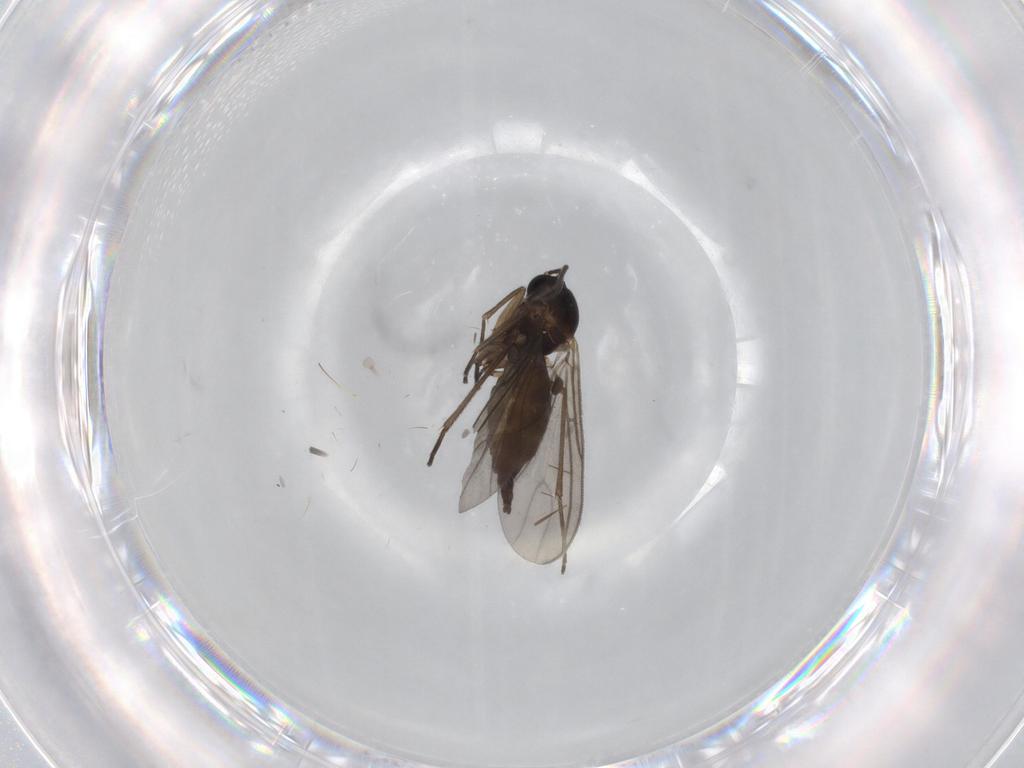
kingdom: Animalia
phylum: Arthropoda
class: Insecta
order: Diptera
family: Sciaridae
